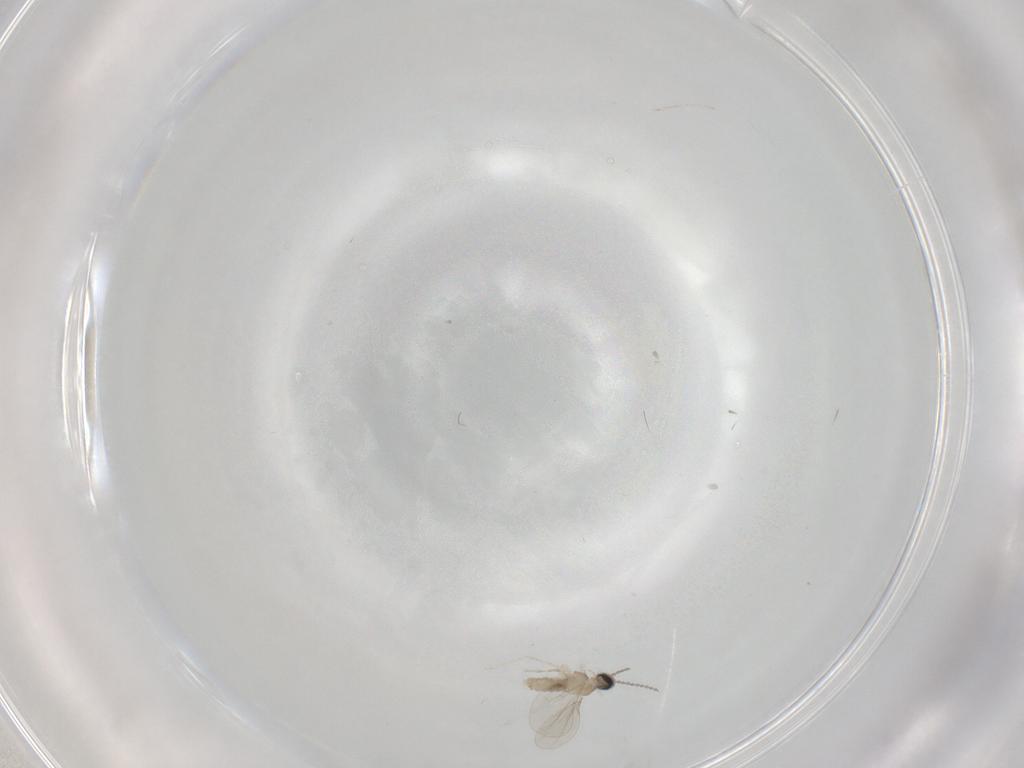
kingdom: Animalia
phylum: Arthropoda
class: Insecta
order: Diptera
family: Cecidomyiidae
